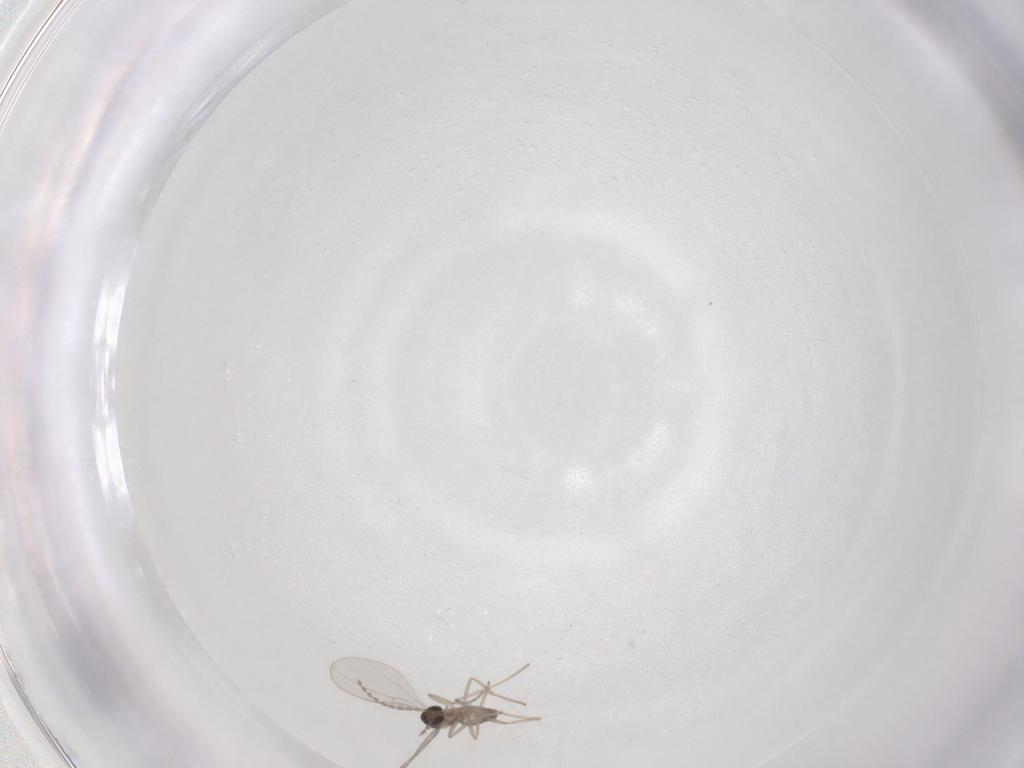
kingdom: Animalia
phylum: Arthropoda
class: Insecta
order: Diptera
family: Cecidomyiidae
